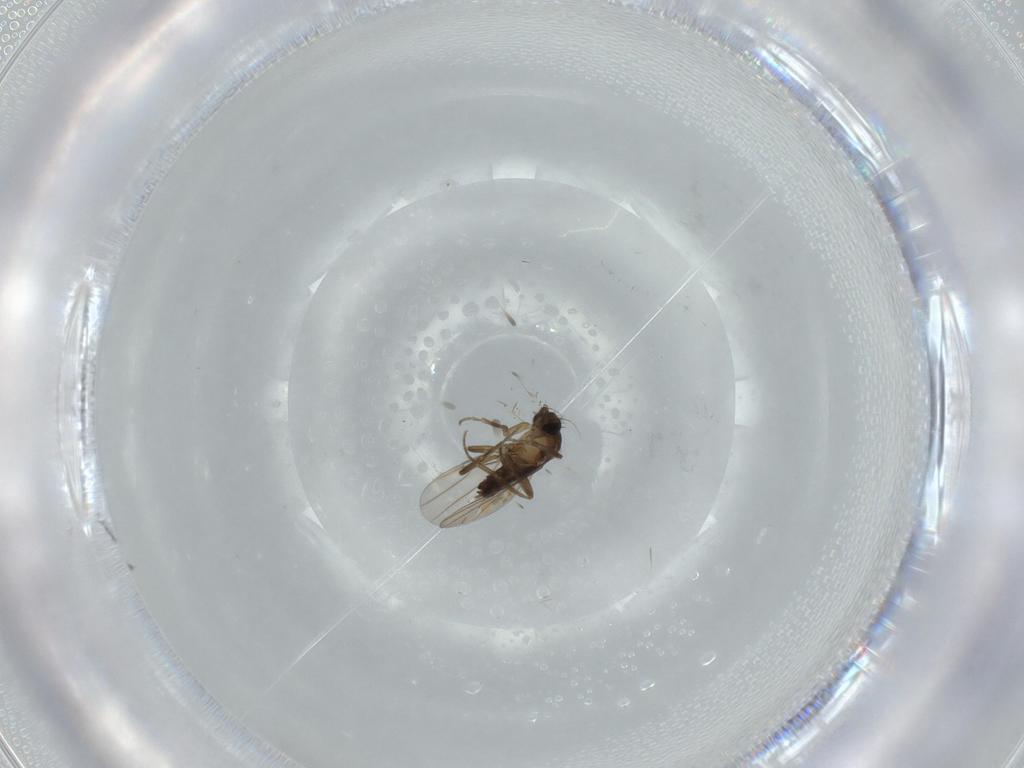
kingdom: Animalia
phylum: Arthropoda
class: Insecta
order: Diptera
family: Phoridae
